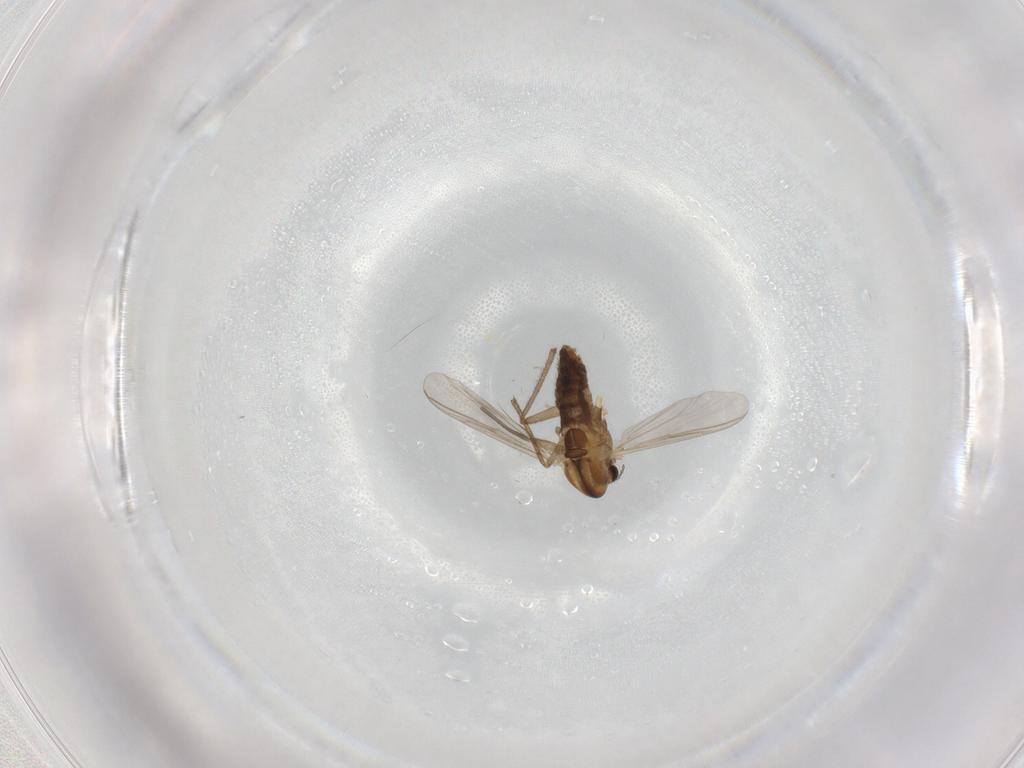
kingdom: Animalia
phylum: Arthropoda
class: Insecta
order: Diptera
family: Chironomidae
